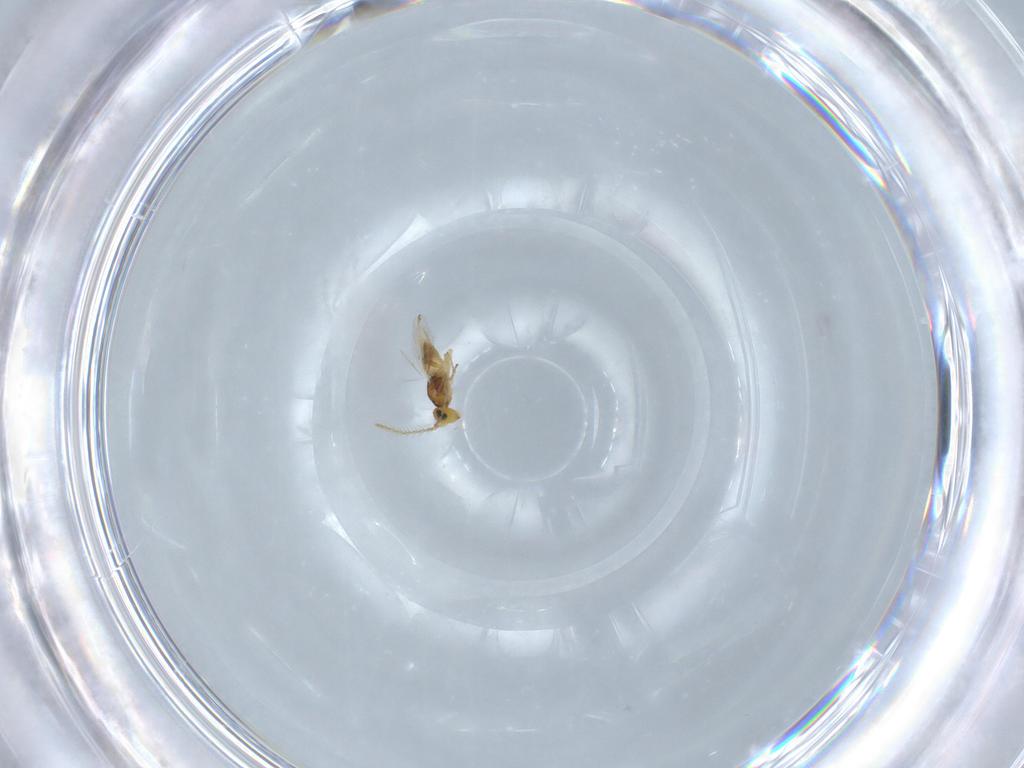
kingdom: Animalia
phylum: Arthropoda
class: Insecta
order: Hymenoptera
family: Encyrtidae
